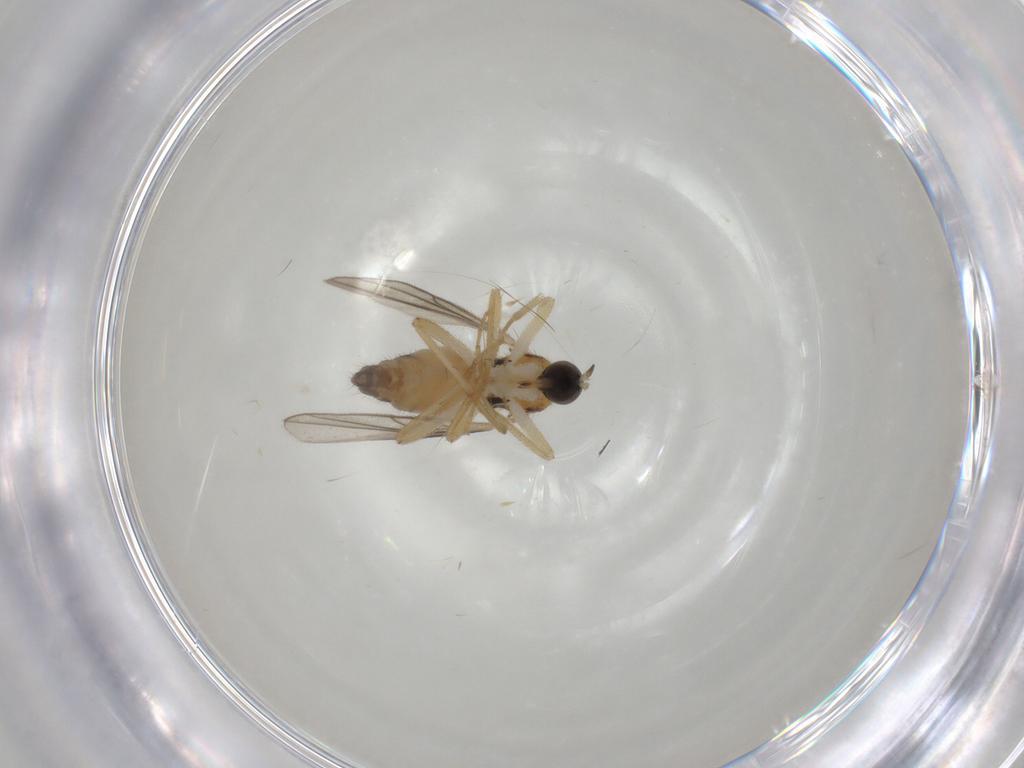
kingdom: Animalia
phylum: Arthropoda
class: Insecta
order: Diptera
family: Hybotidae
